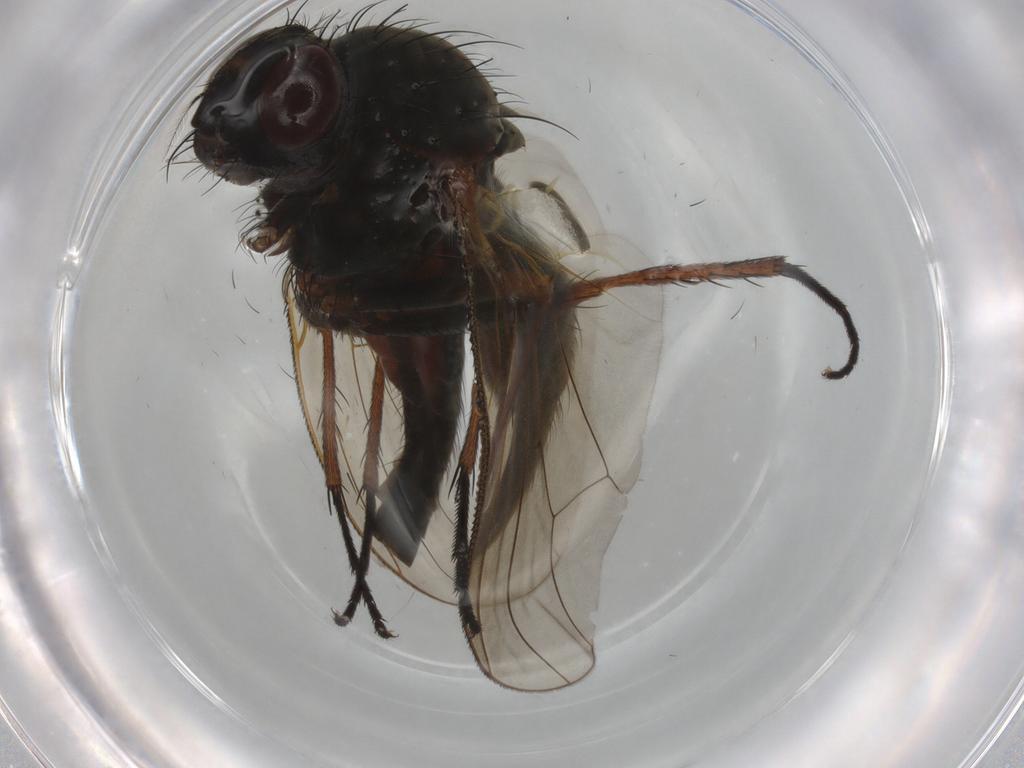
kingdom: Animalia
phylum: Arthropoda
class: Insecta
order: Diptera
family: Anthomyiidae
